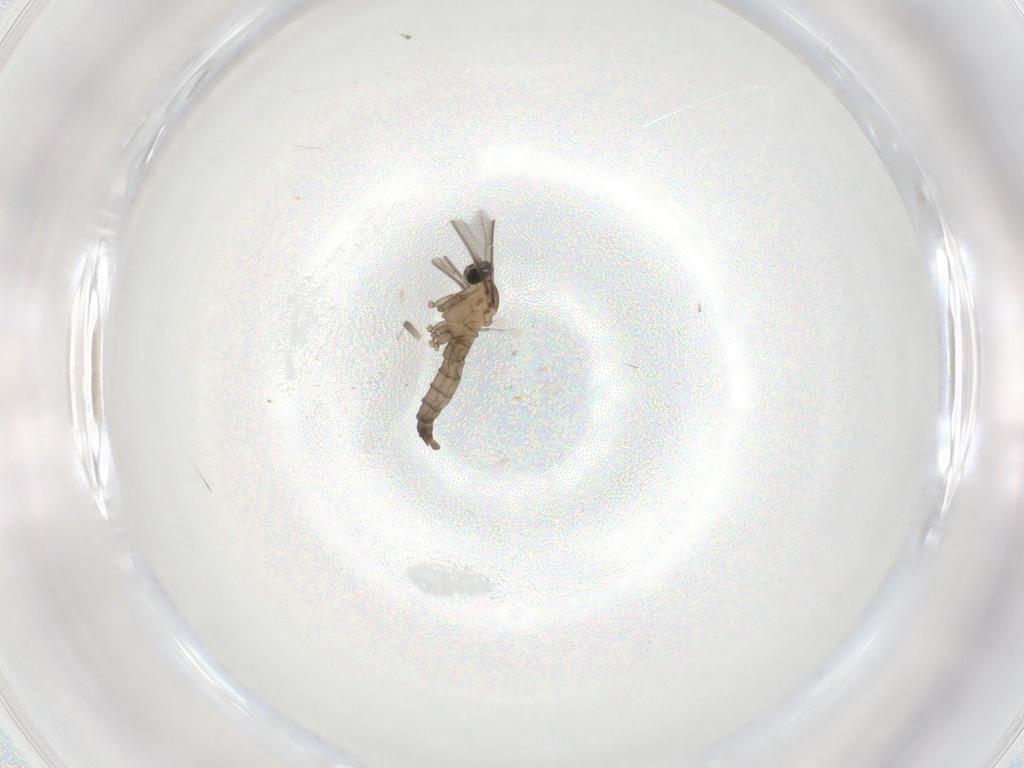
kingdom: Animalia
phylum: Arthropoda
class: Insecta
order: Diptera
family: Cecidomyiidae
